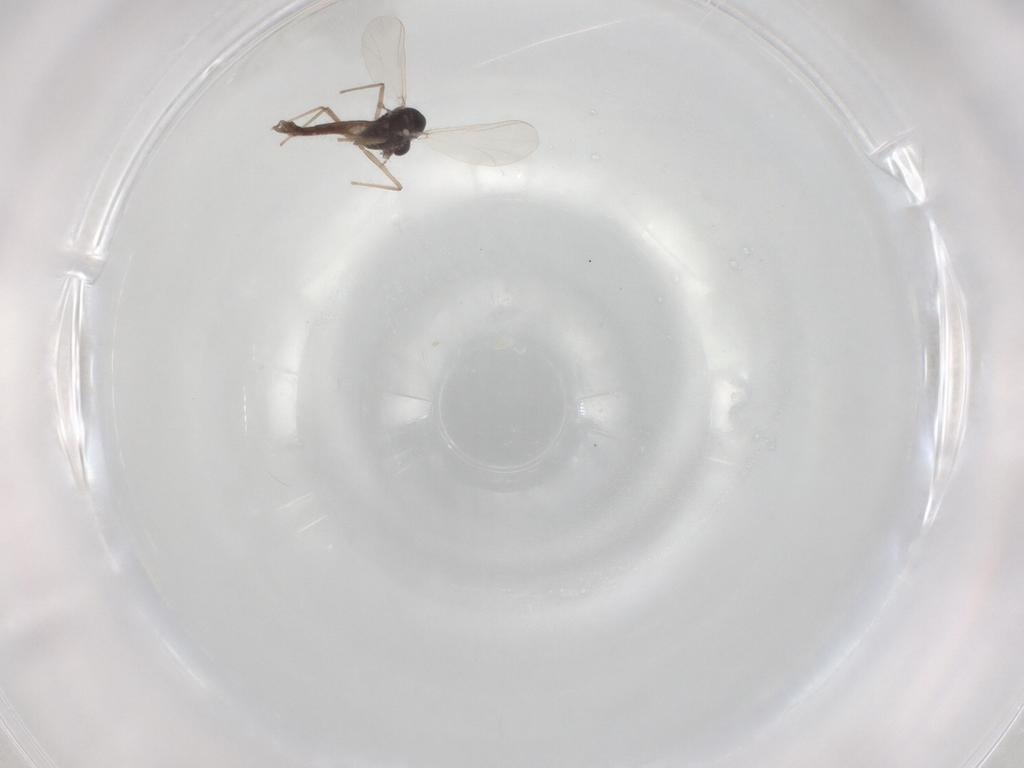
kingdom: Animalia
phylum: Arthropoda
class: Insecta
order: Diptera
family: Chironomidae
